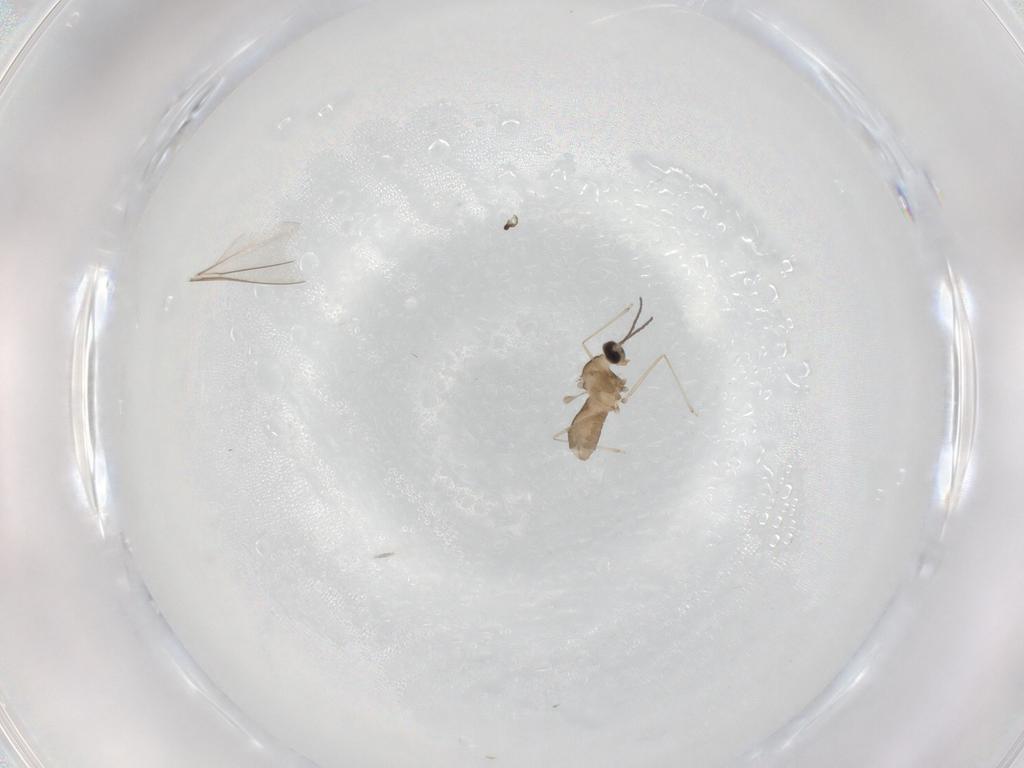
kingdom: Animalia
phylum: Arthropoda
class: Insecta
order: Diptera
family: Cecidomyiidae
